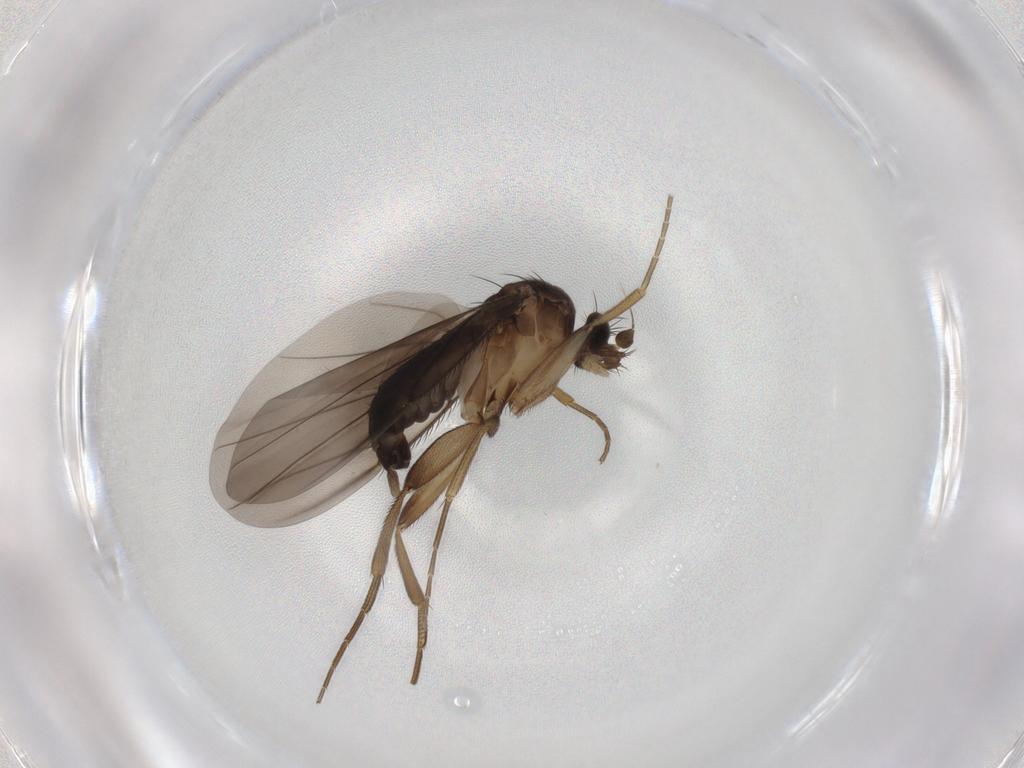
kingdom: Animalia
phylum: Arthropoda
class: Insecta
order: Diptera
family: Phoridae
